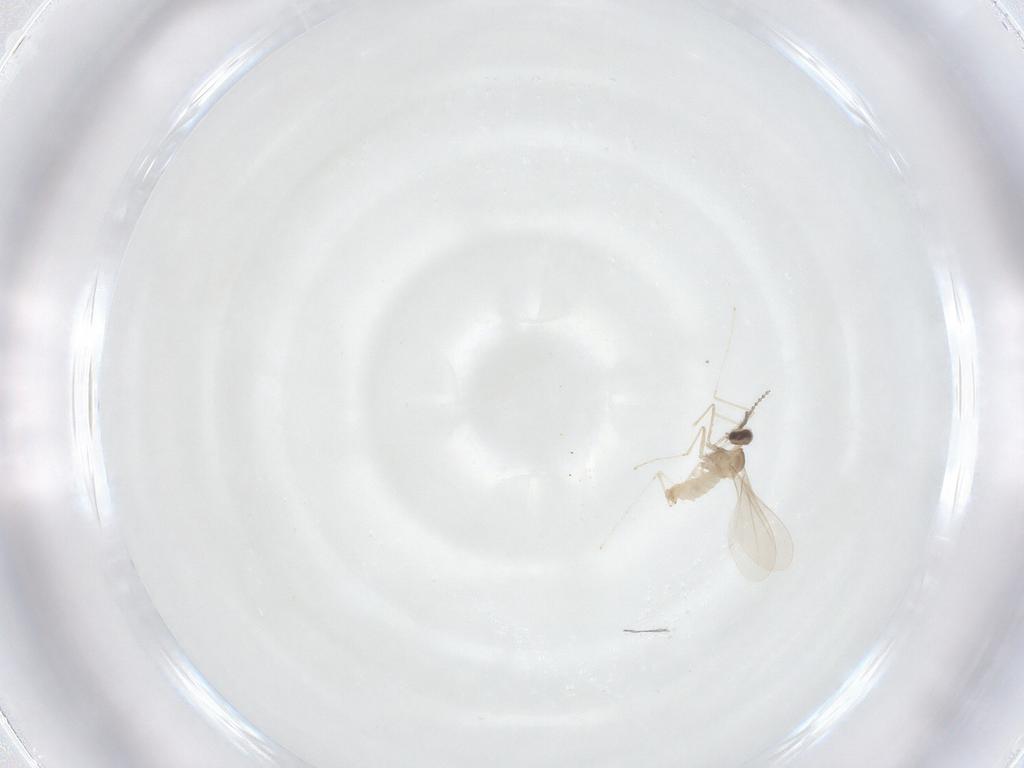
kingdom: Animalia
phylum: Arthropoda
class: Insecta
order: Diptera
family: Cecidomyiidae
